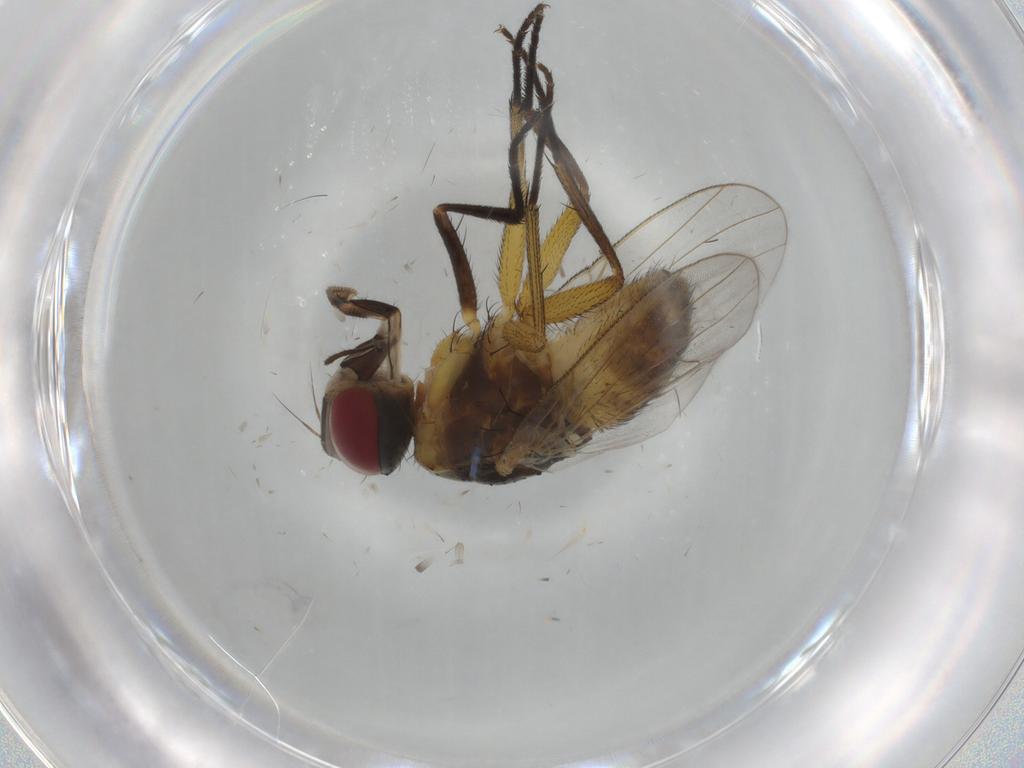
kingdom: Animalia
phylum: Arthropoda
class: Insecta
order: Diptera
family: Muscidae
